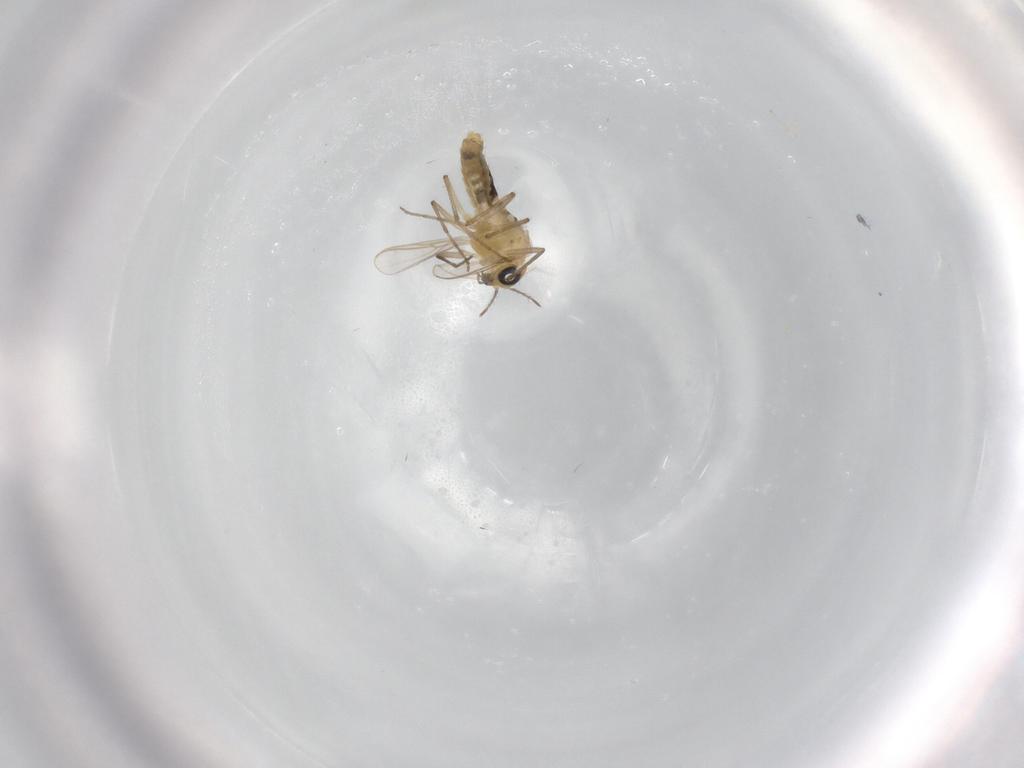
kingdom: Animalia
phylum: Arthropoda
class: Insecta
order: Diptera
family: Chironomidae
